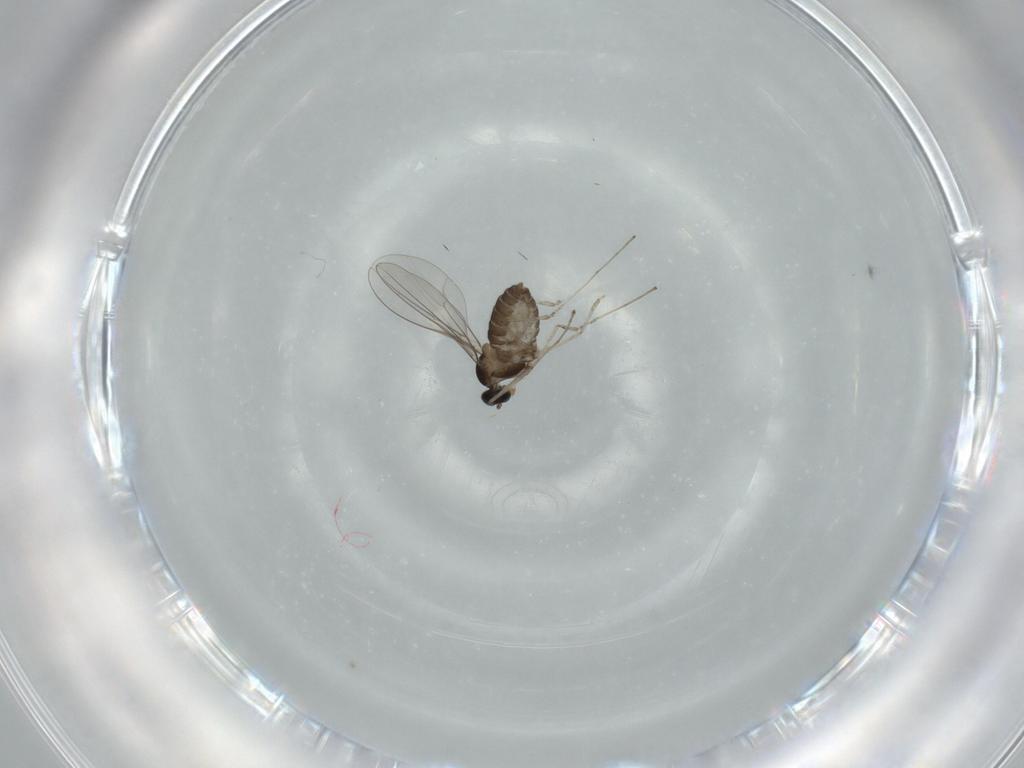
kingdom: Animalia
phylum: Arthropoda
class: Insecta
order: Diptera
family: Cecidomyiidae
